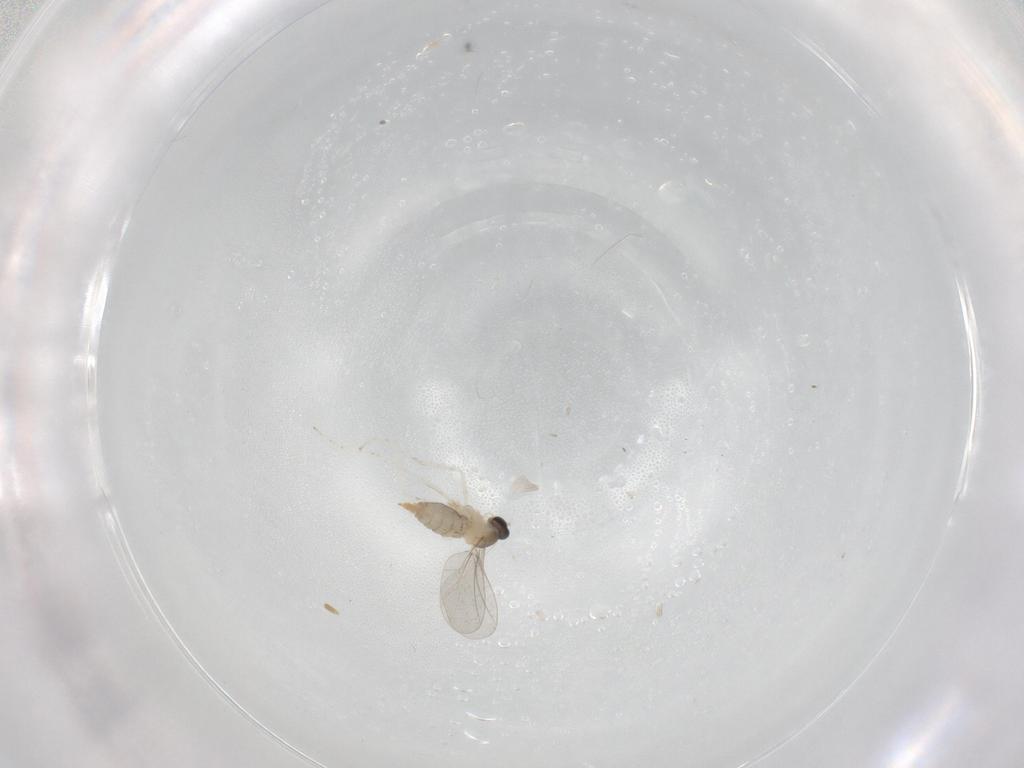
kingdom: Animalia
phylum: Arthropoda
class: Insecta
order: Diptera
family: Cecidomyiidae
